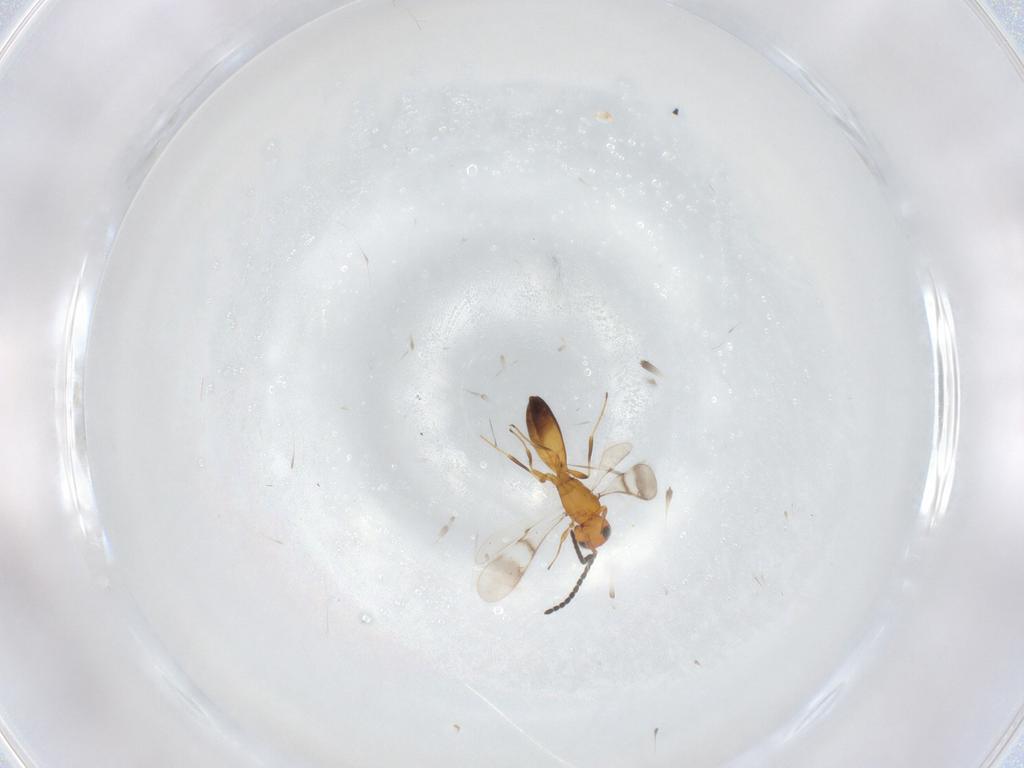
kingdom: Animalia
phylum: Arthropoda
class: Insecta
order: Hymenoptera
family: Scelionidae
